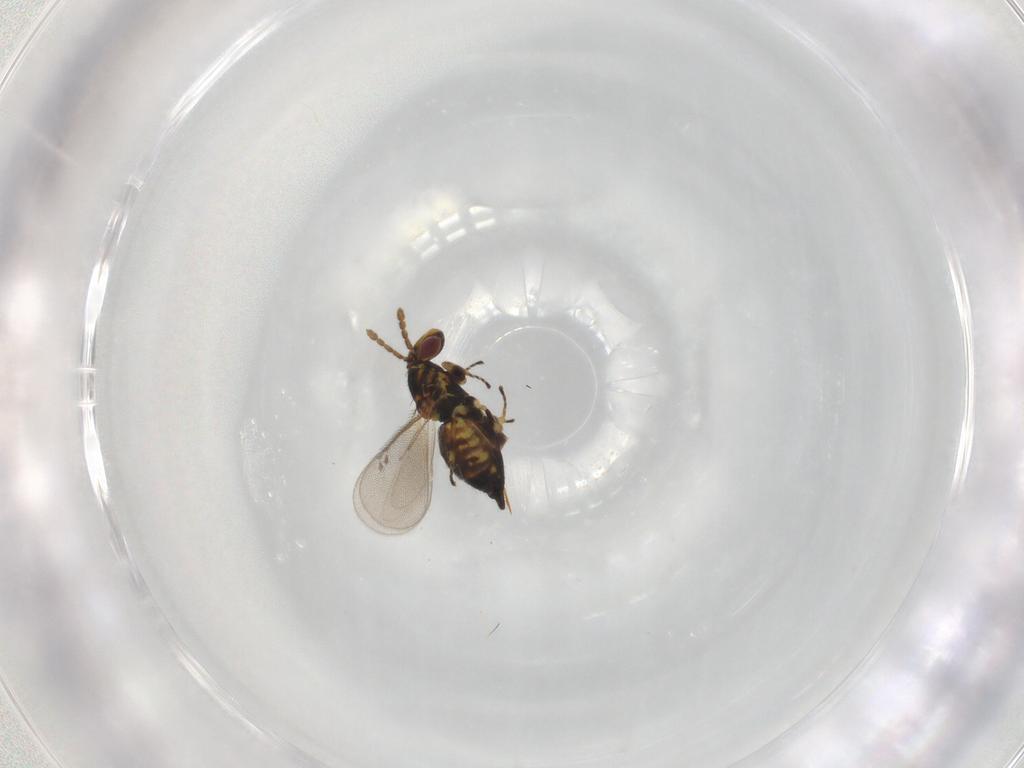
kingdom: Animalia
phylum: Arthropoda
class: Insecta
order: Hymenoptera
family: Eulophidae
